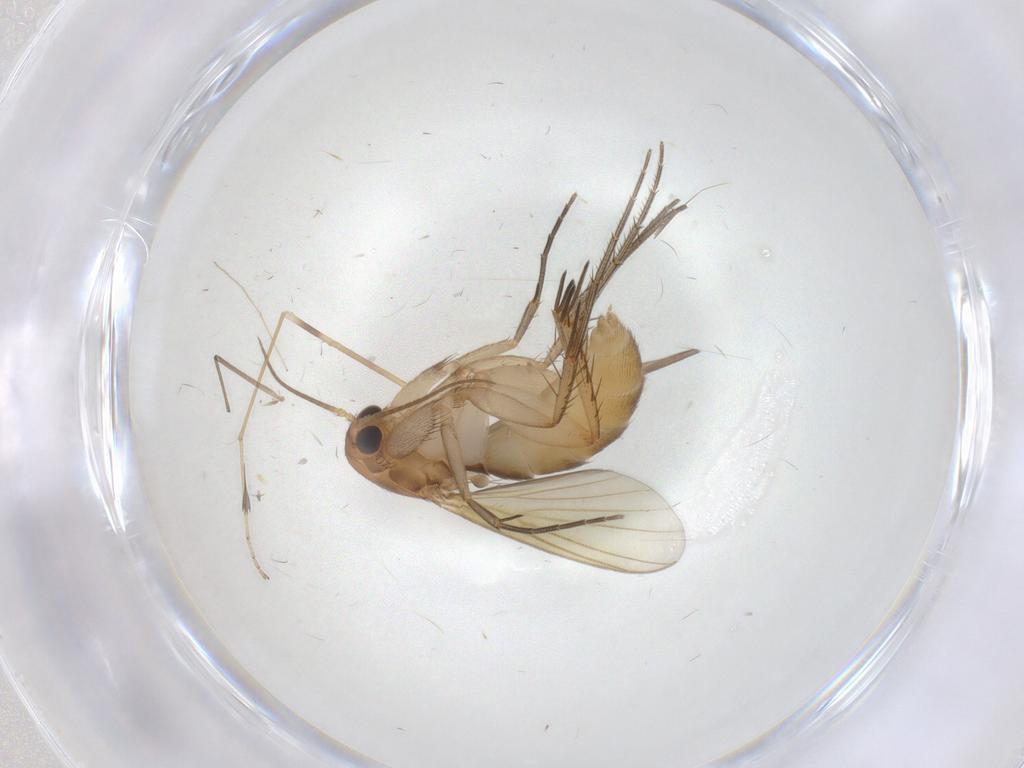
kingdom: Animalia
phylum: Arthropoda
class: Insecta
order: Diptera
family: Mycetophilidae
